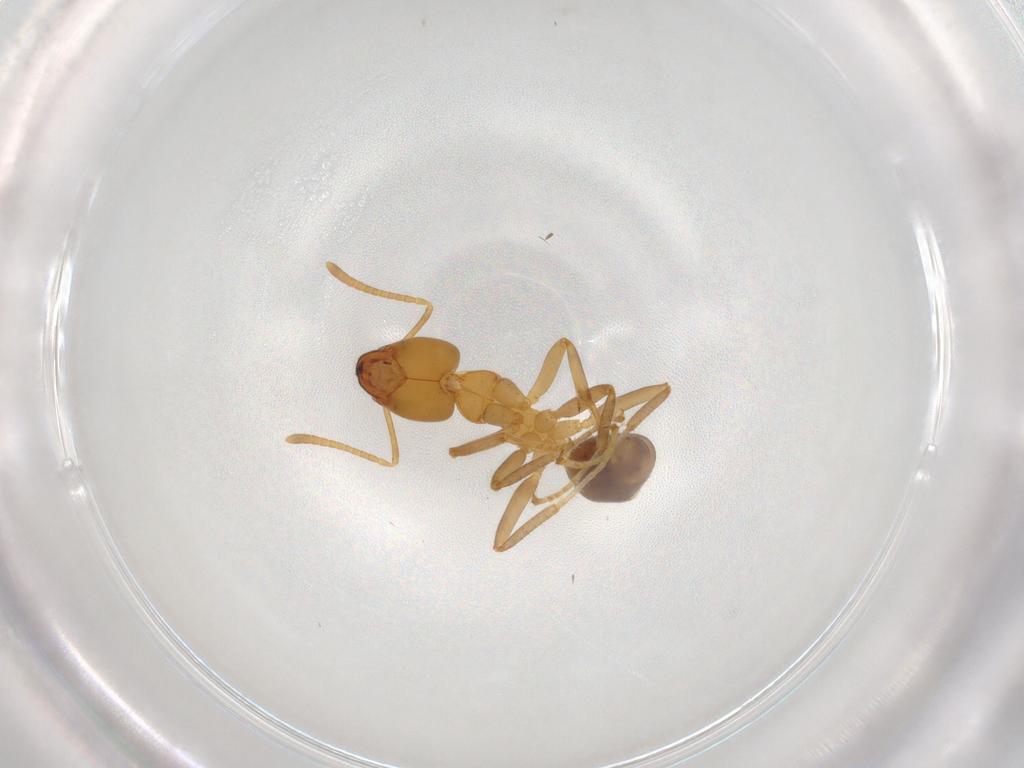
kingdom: Animalia
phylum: Arthropoda
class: Insecta
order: Hymenoptera
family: Formicidae
